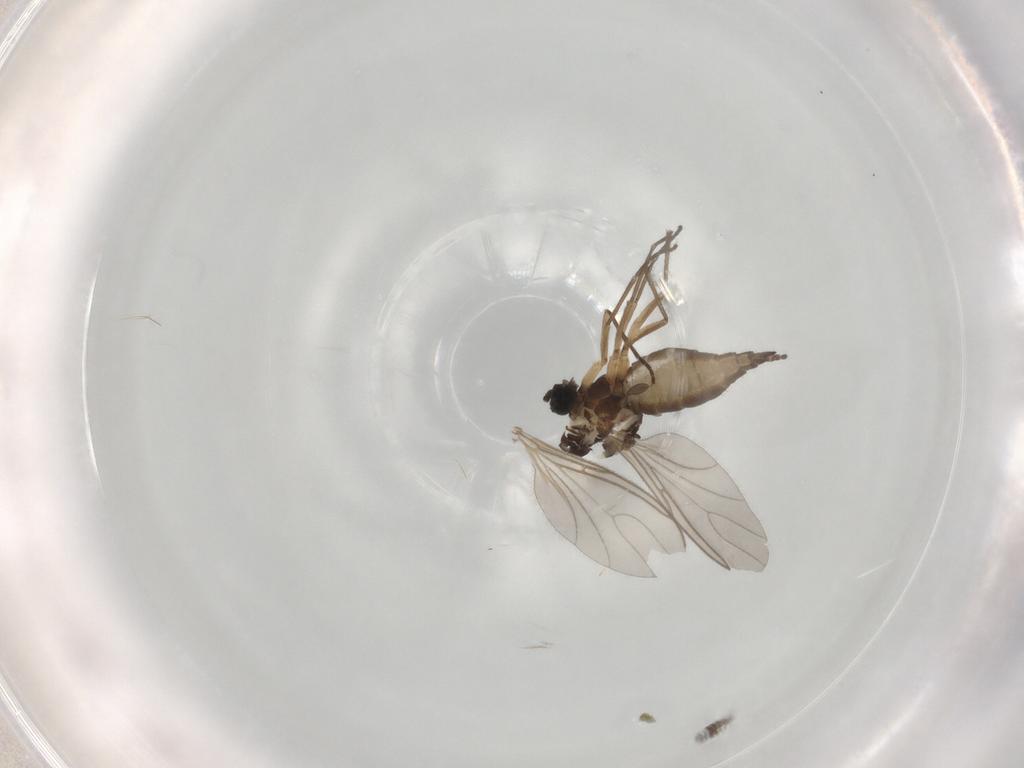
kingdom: Animalia
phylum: Arthropoda
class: Insecta
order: Diptera
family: Sciaridae
